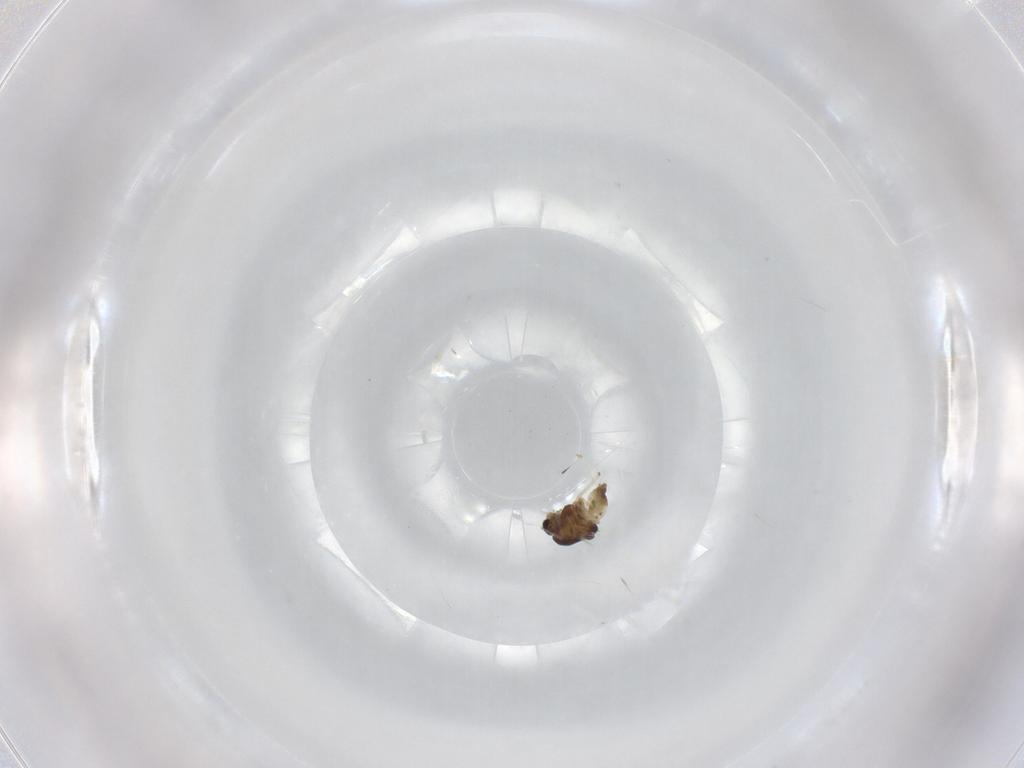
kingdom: Animalia
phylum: Arthropoda
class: Insecta
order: Diptera
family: Chironomidae
